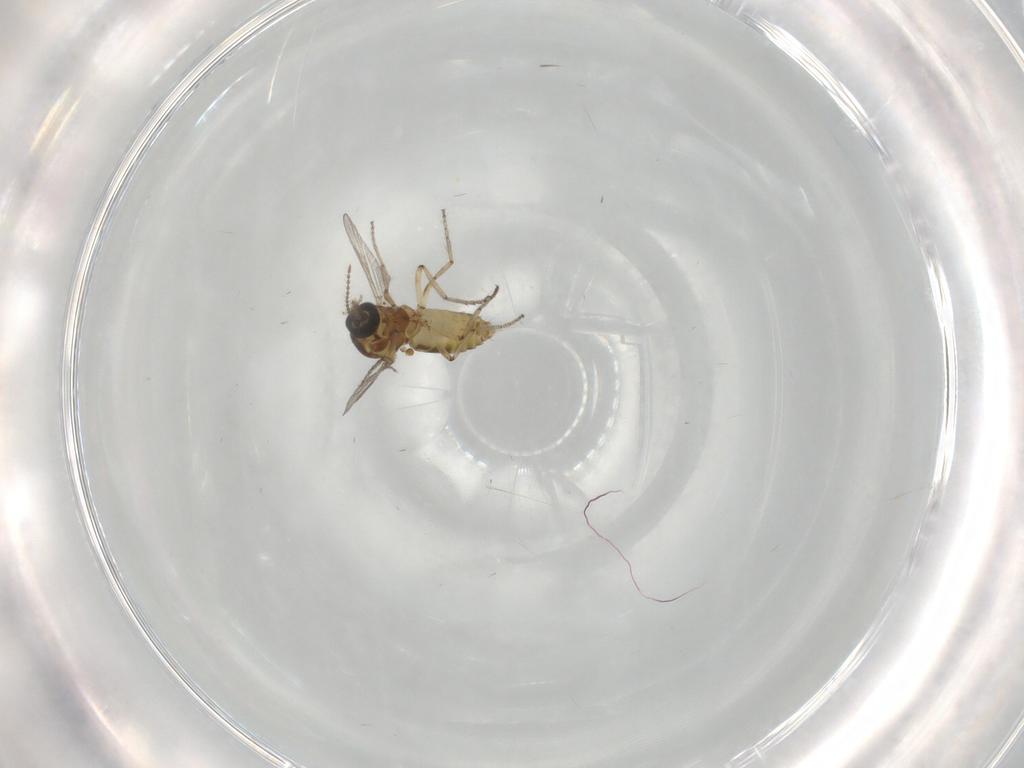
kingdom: Animalia
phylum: Arthropoda
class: Insecta
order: Diptera
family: Ceratopogonidae
